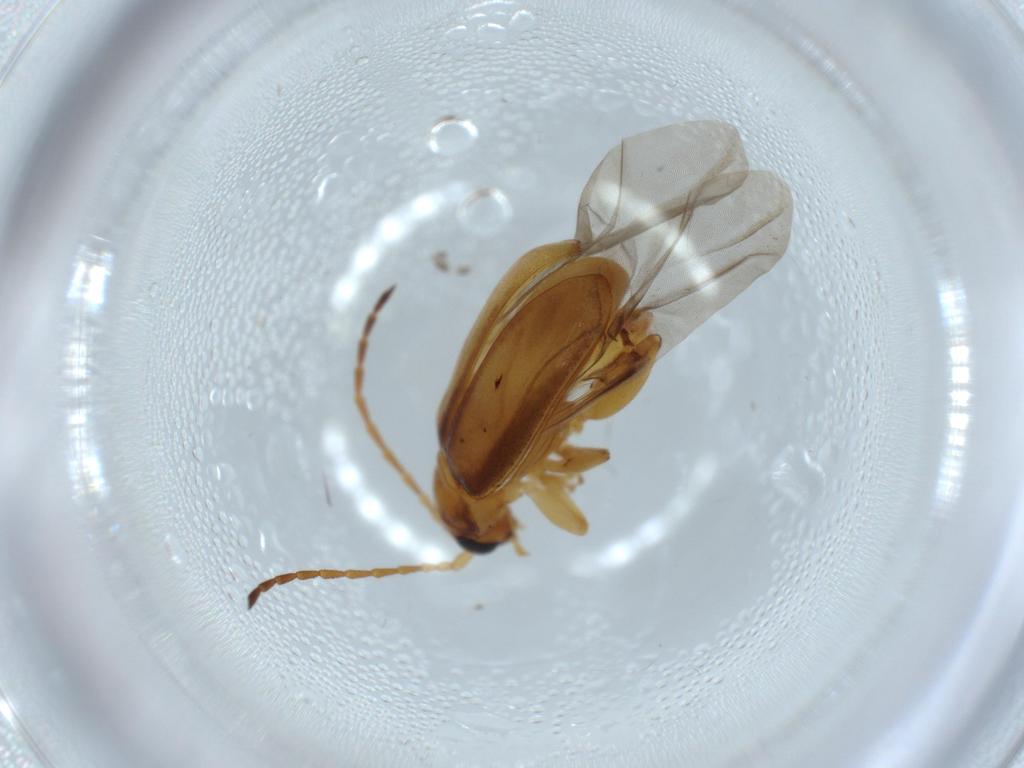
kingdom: Animalia
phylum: Arthropoda
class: Insecta
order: Coleoptera
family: Chrysomelidae
